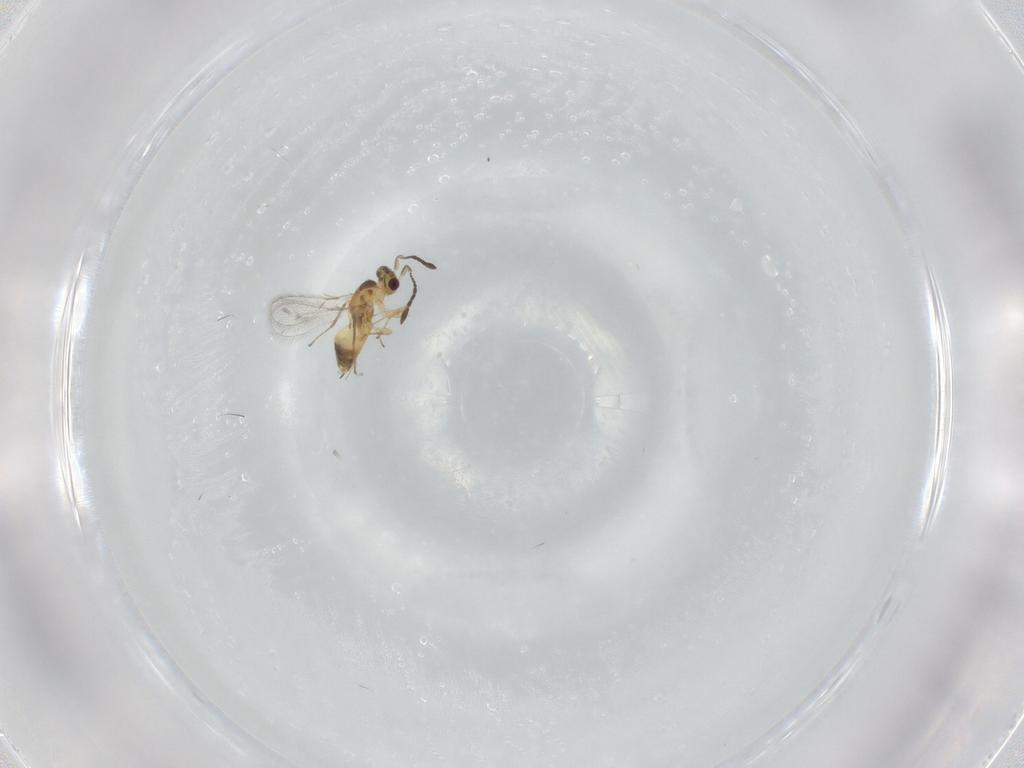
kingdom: Animalia
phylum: Arthropoda
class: Insecta
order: Hymenoptera
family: Mymaridae
